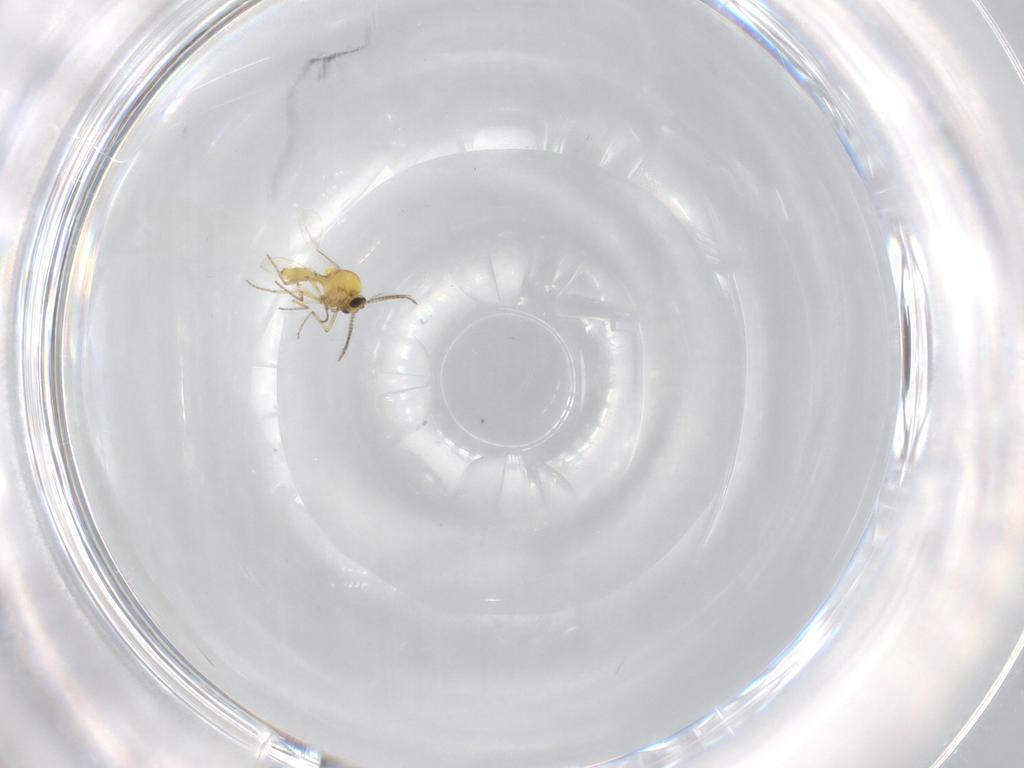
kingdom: Animalia
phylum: Arthropoda
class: Insecta
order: Diptera
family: Ceratopogonidae
